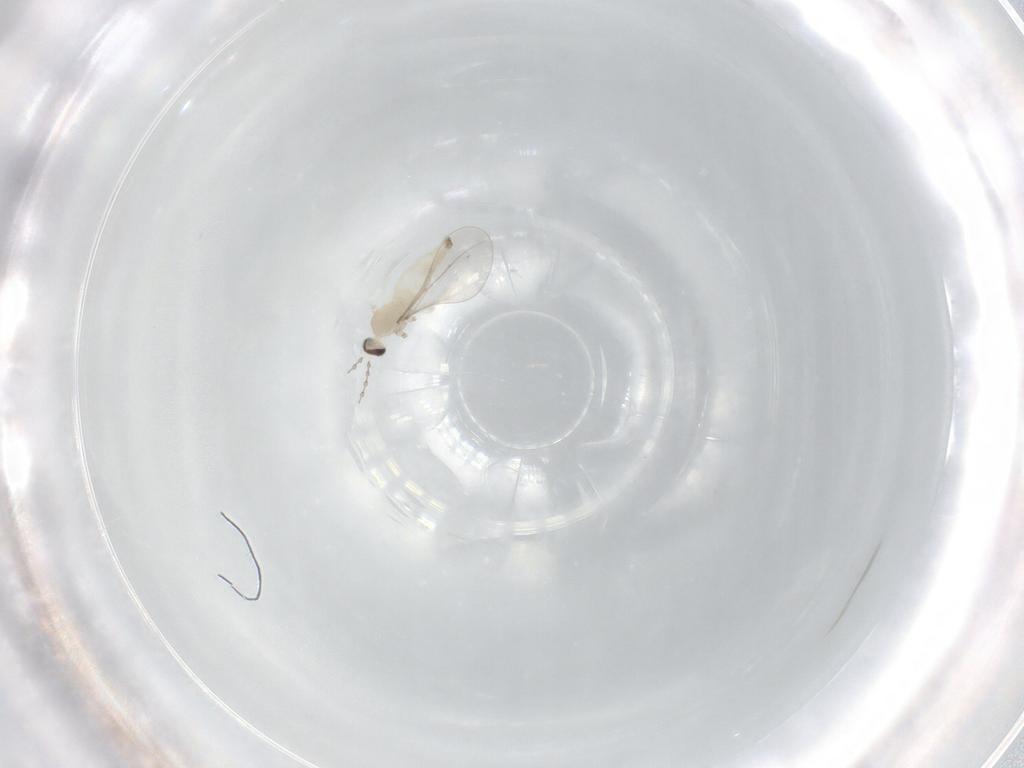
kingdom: Animalia
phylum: Arthropoda
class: Insecta
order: Diptera
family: Cecidomyiidae
